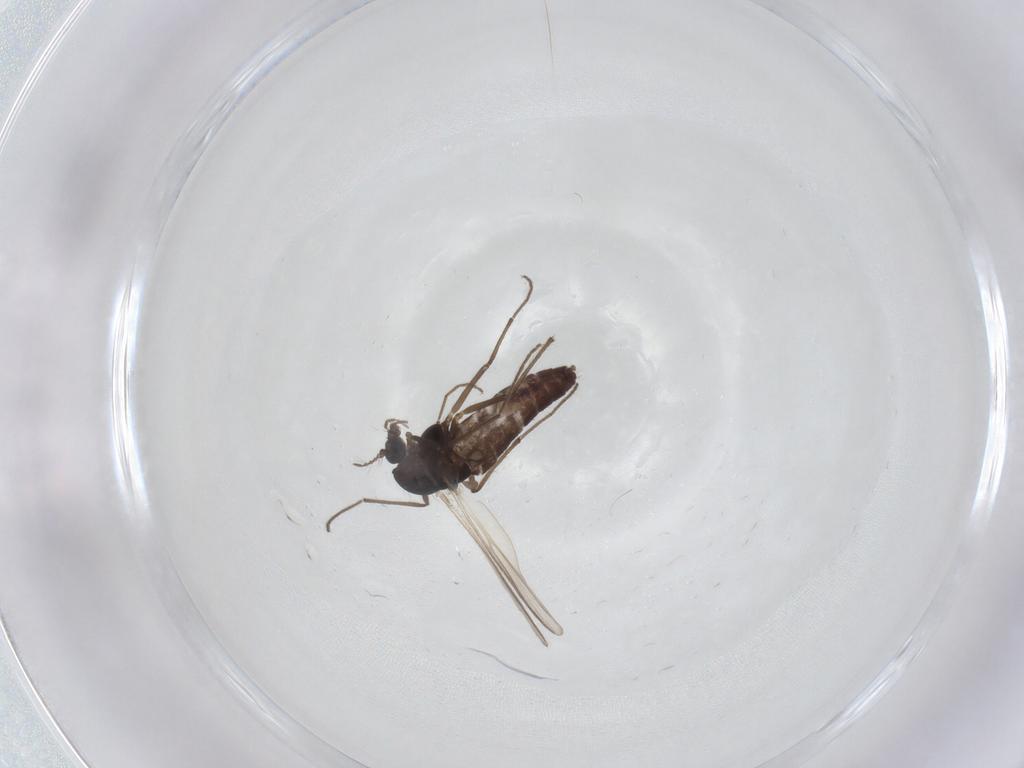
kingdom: Animalia
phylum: Arthropoda
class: Insecta
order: Diptera
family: Chironomidae
